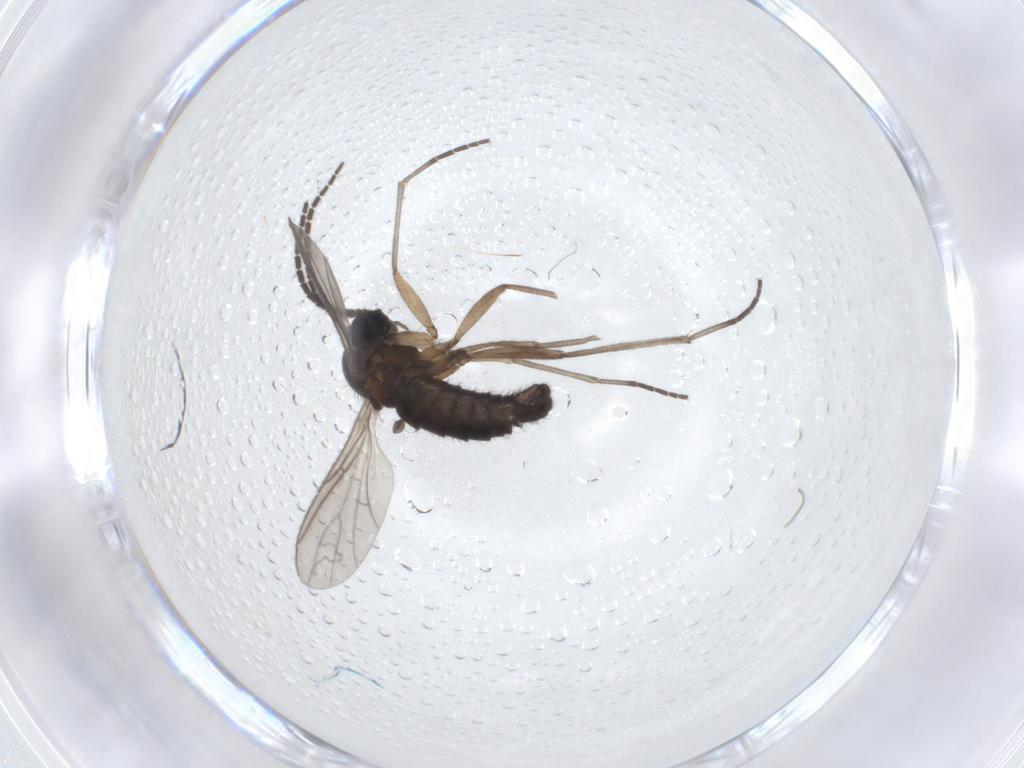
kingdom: Animalia
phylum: Arthropoda
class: Insecta
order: Diptera
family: Sciaridae
